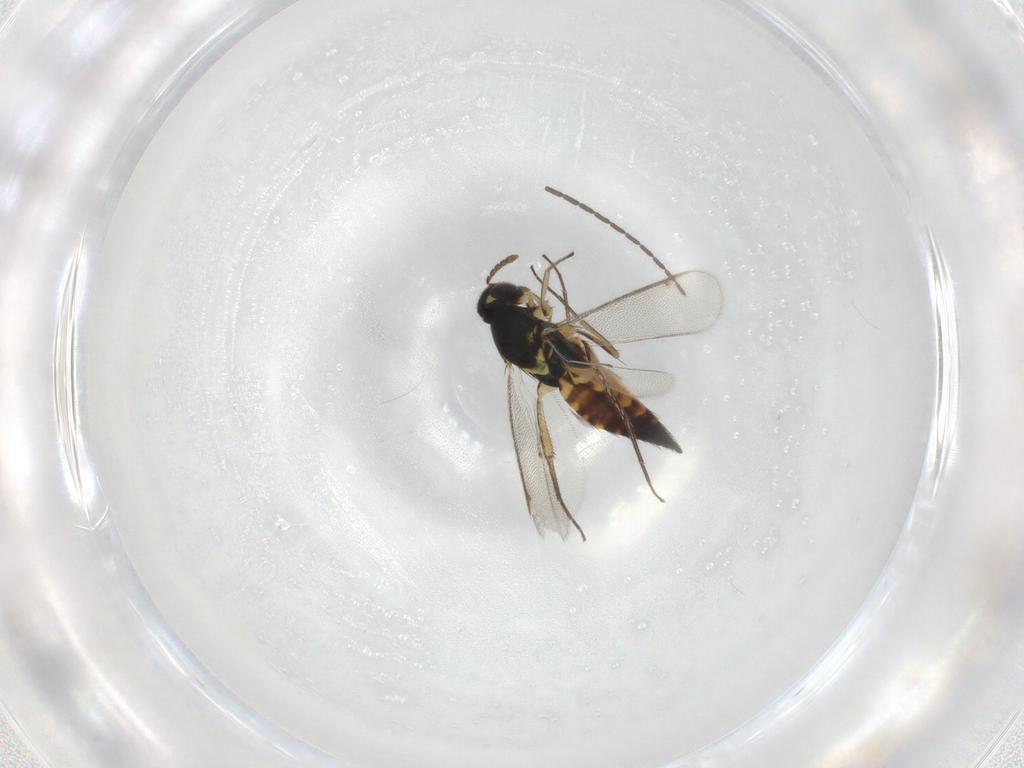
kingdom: Animalia
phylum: Arthropoda
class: Insecta
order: Hymenoptera
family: Eulophidae
